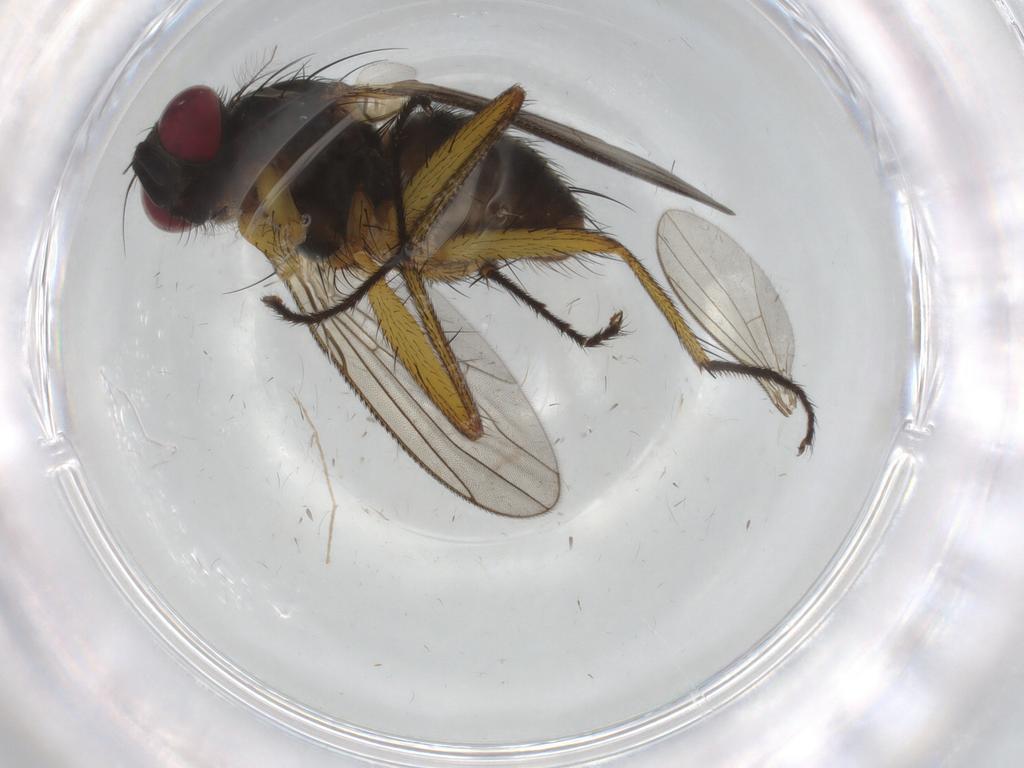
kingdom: Animalia
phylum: Arthropoda
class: Insecta
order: Diptera
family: Muscidae
